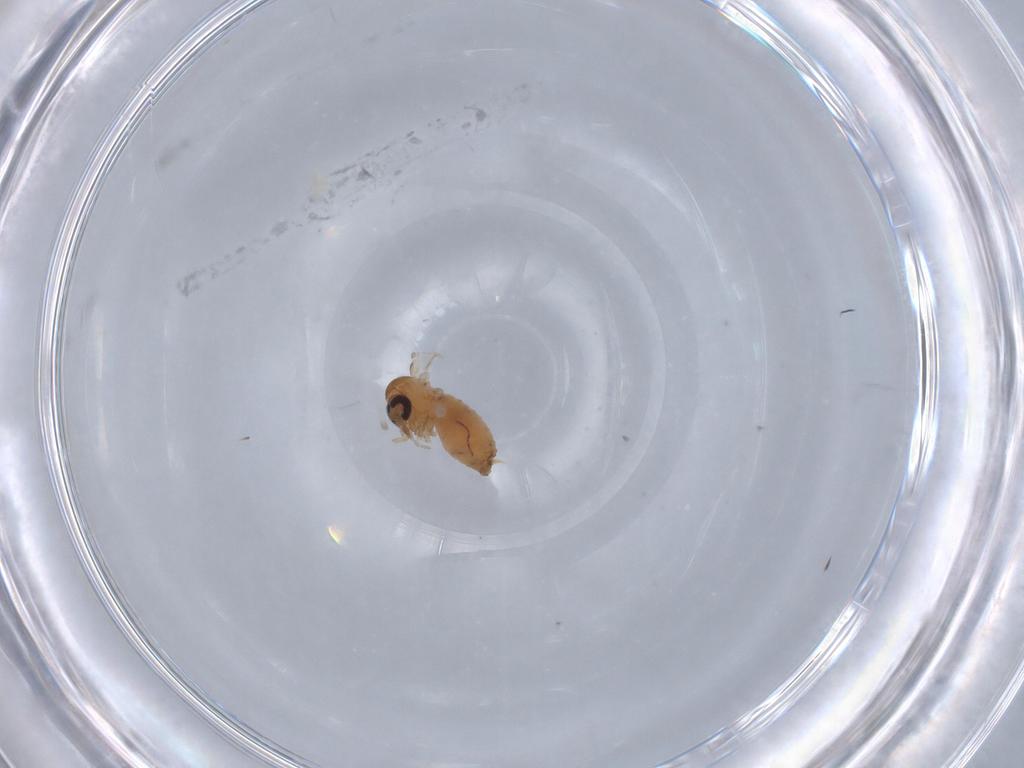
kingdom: Animalia
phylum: Arthropoda
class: Insecta
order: Diptera
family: Psychodidae
